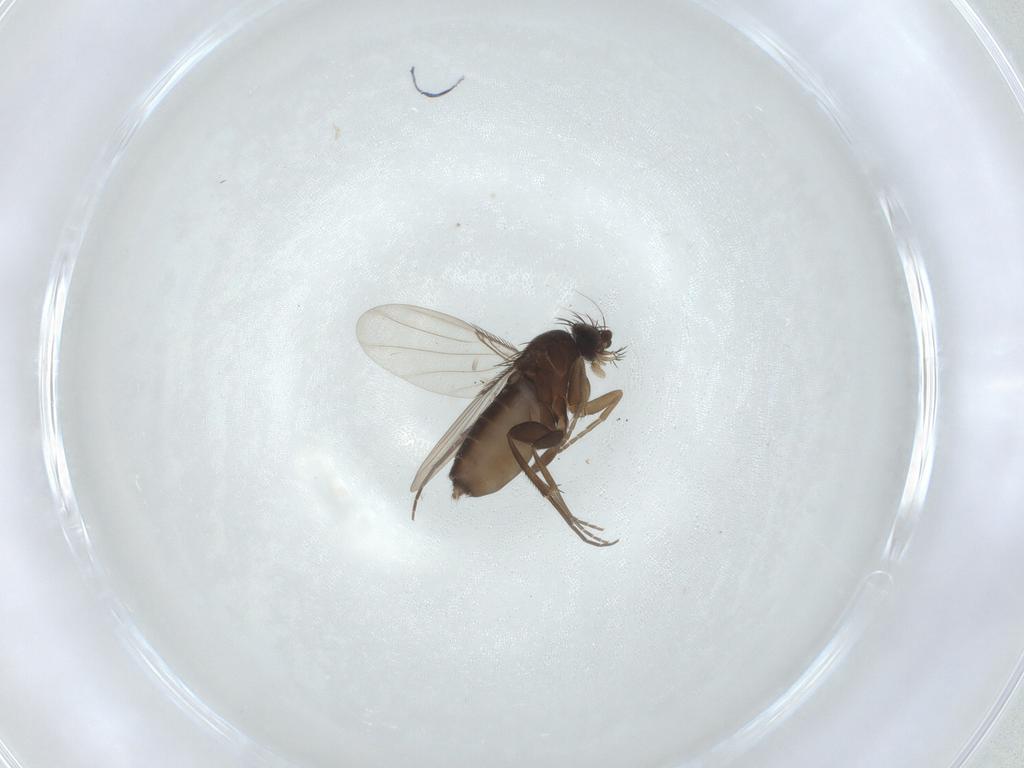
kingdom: Animalia
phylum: Arthropoda
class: Insecta
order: Diptera
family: Phoridae
